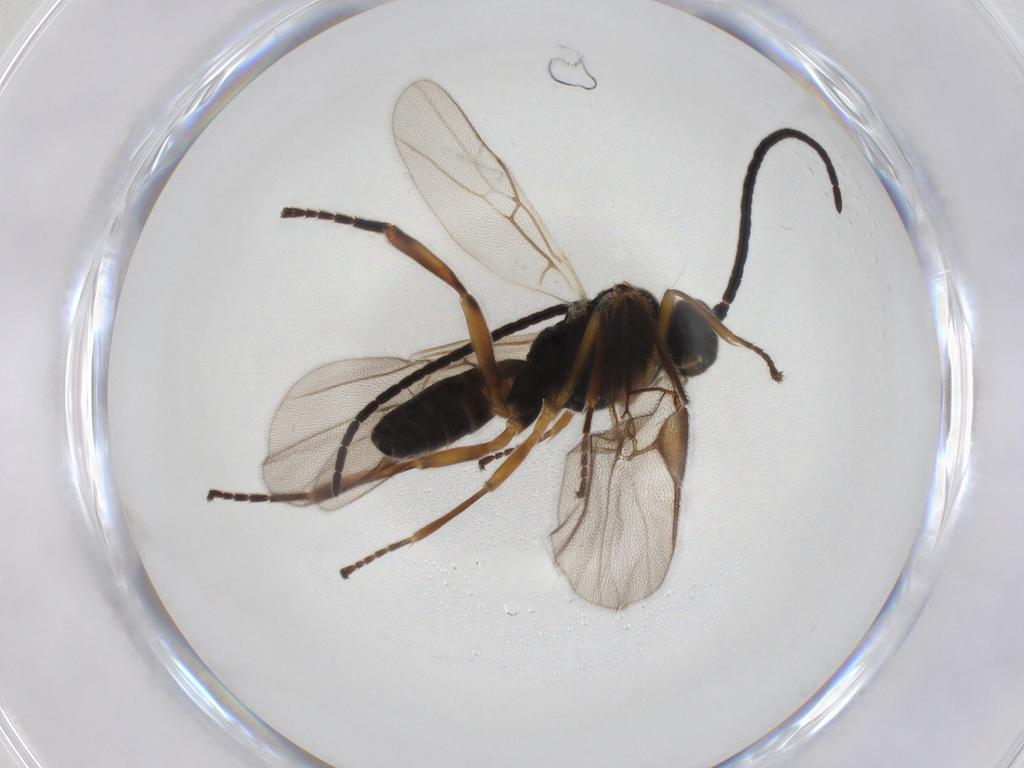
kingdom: Animalia
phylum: Arthropoda
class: Insecta
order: Hymenoptera
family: Braconidae
